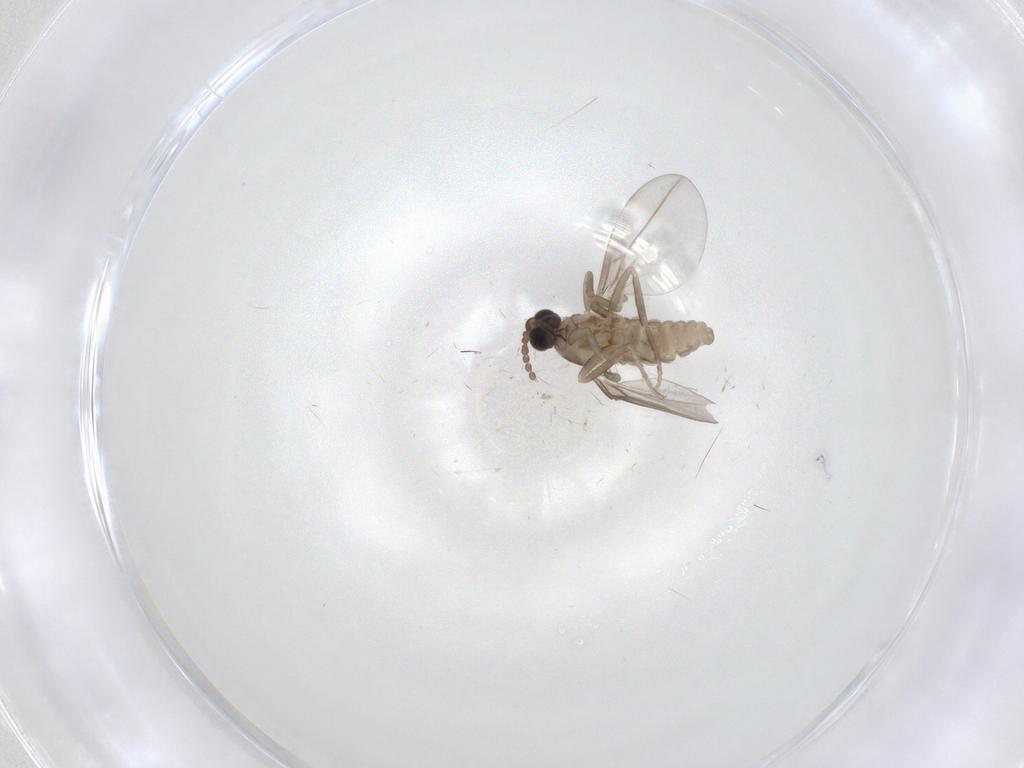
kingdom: Animalia
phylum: Arthropoda
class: Insecta
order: Diptera
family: Cecidomyiidae
